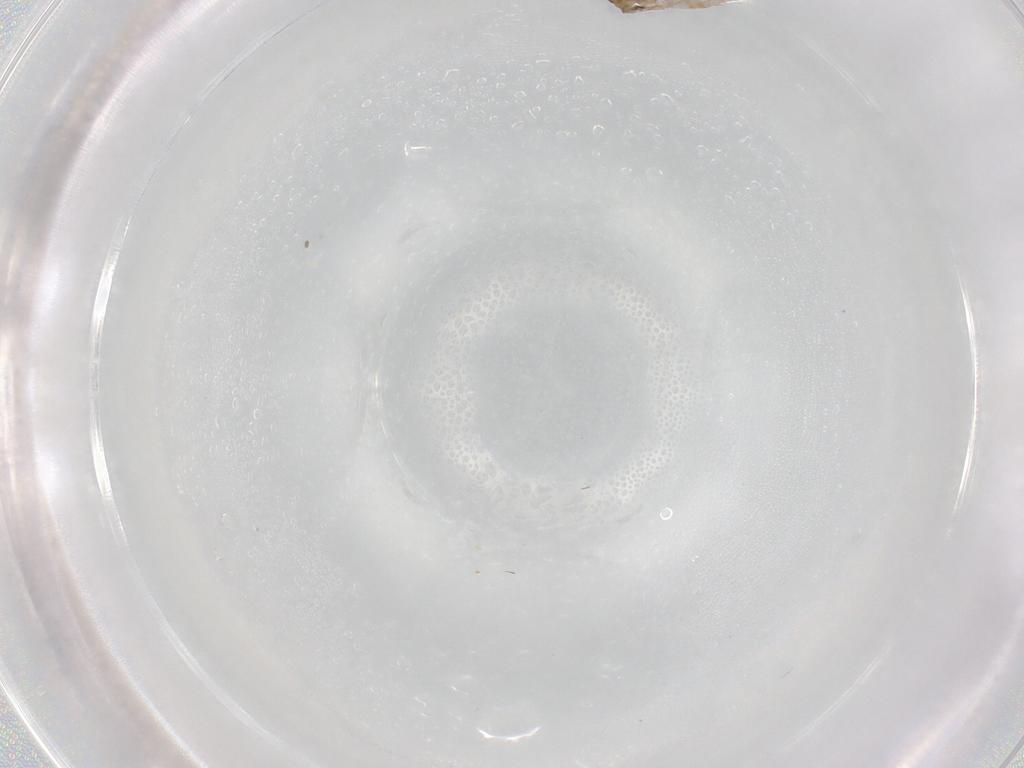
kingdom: Animalia
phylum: Arthropoda
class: Insecta
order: Diptera
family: Chironomidae
